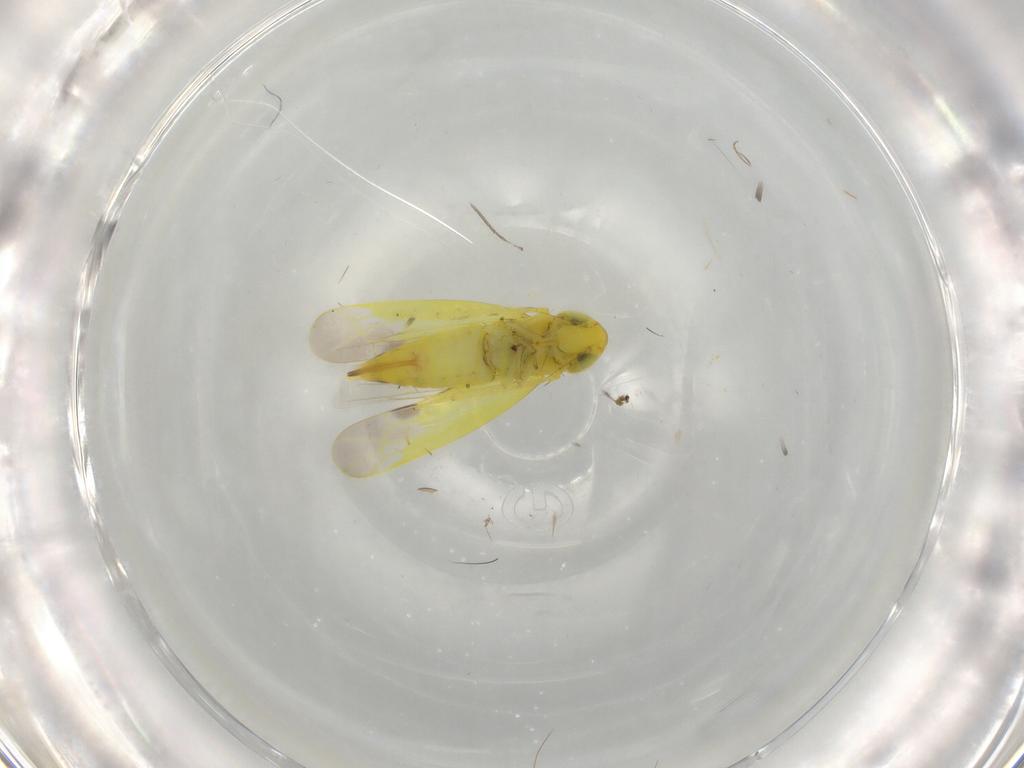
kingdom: Animalia
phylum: Arthropoda
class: Insecta
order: Hemiptera
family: Cicadellidae
